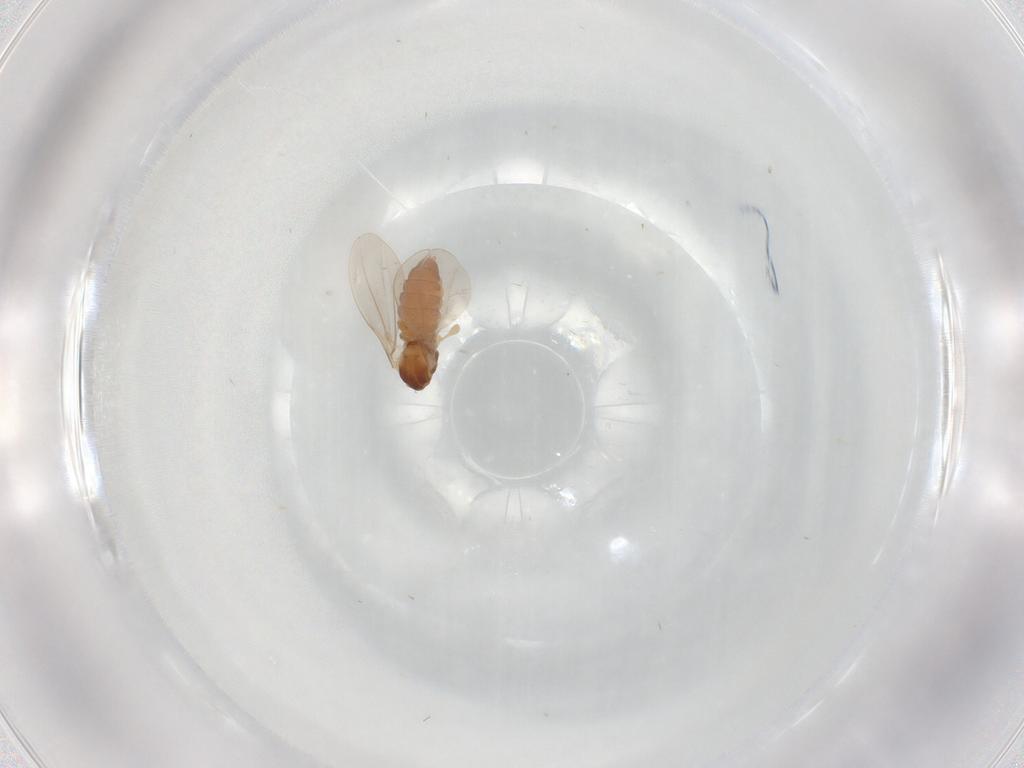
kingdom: Animalia
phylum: Arthropoda
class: Insecta
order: Diptera
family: Cecidomyiidae
